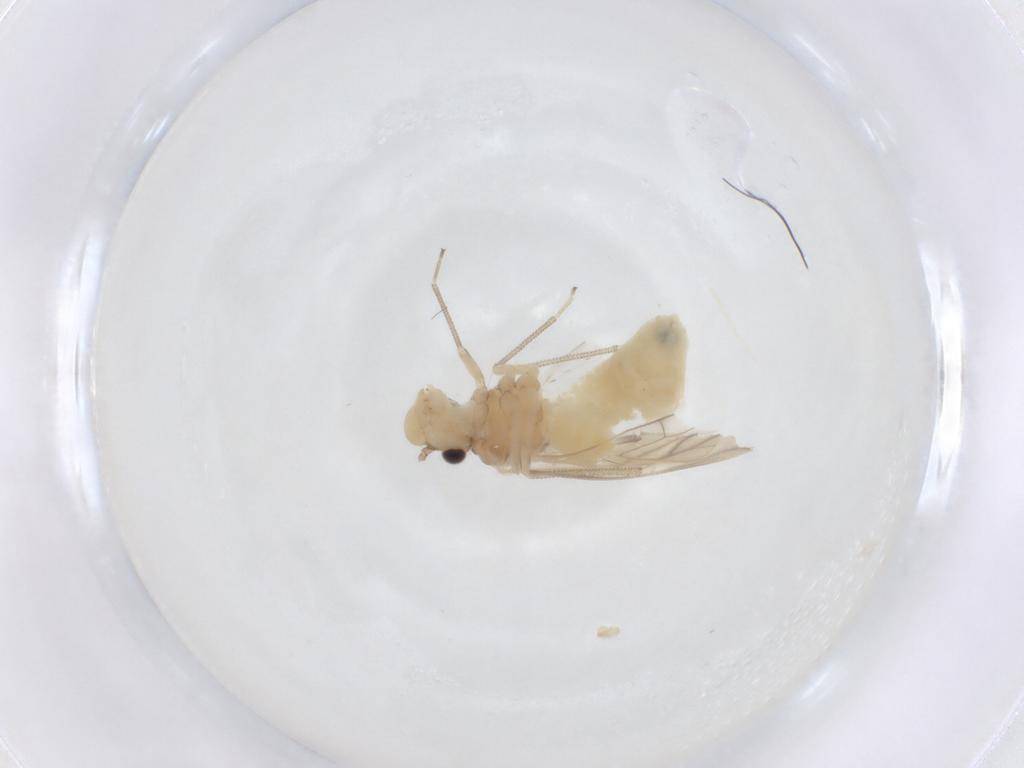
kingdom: Animalia
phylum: Arthropoda
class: Insecta
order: Psocodea
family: Caeciliusidae
